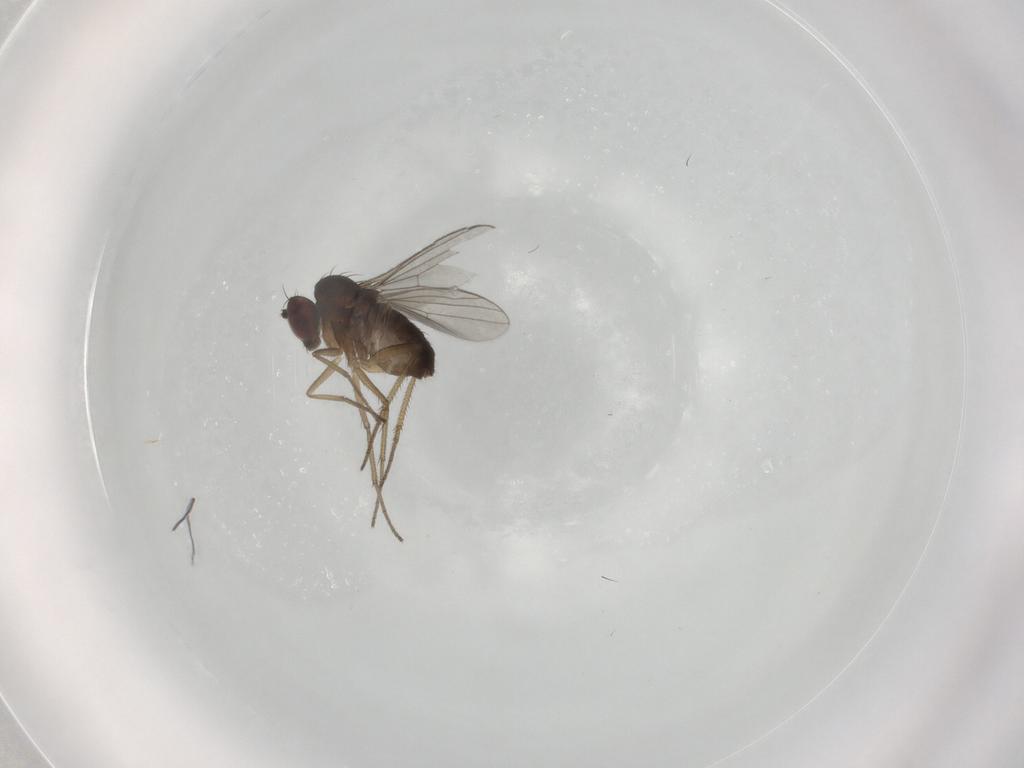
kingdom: Animalia
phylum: Arthropoda
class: Insecta
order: Diptera
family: Dolichopodidae
